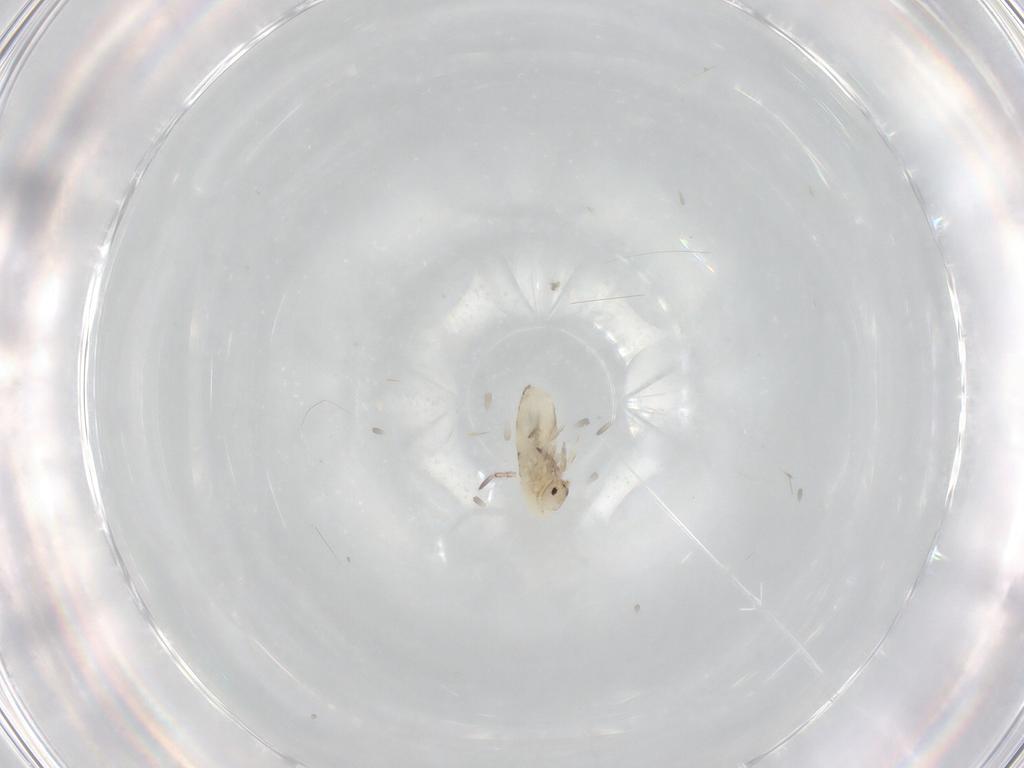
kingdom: Animalia
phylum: Arthropoda
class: Collembola
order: Entomobryomorpha
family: Entomobryidae
